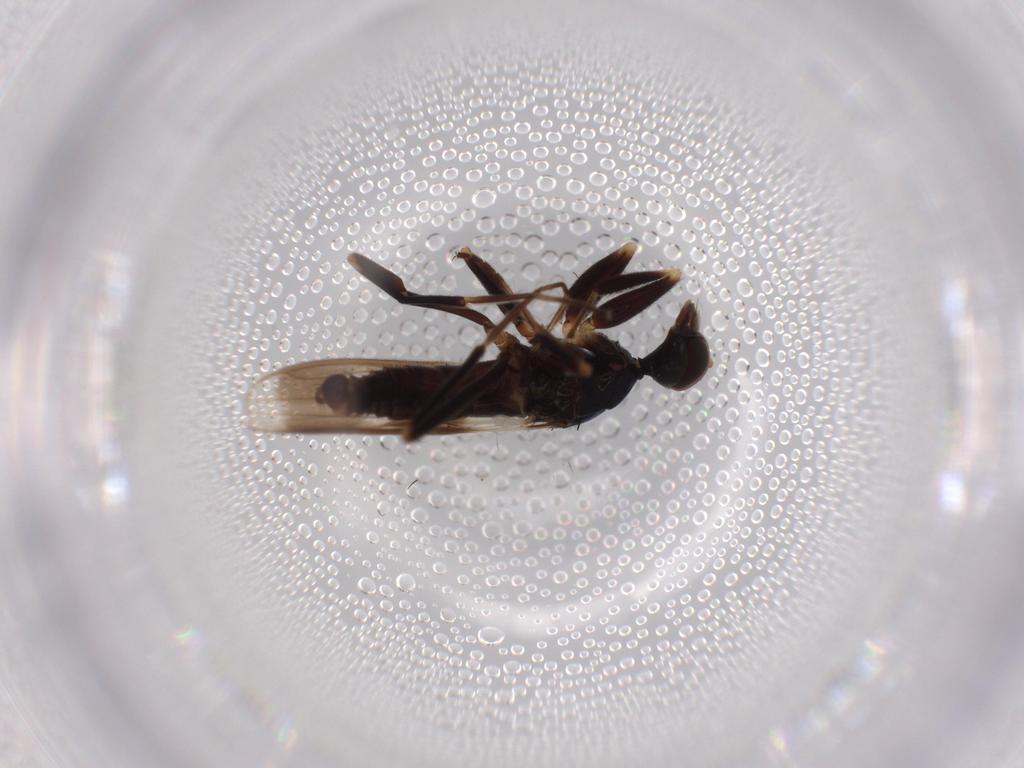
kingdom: Animalia
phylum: Arthropoda
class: Insecta
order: Diptera
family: Hybotidae
